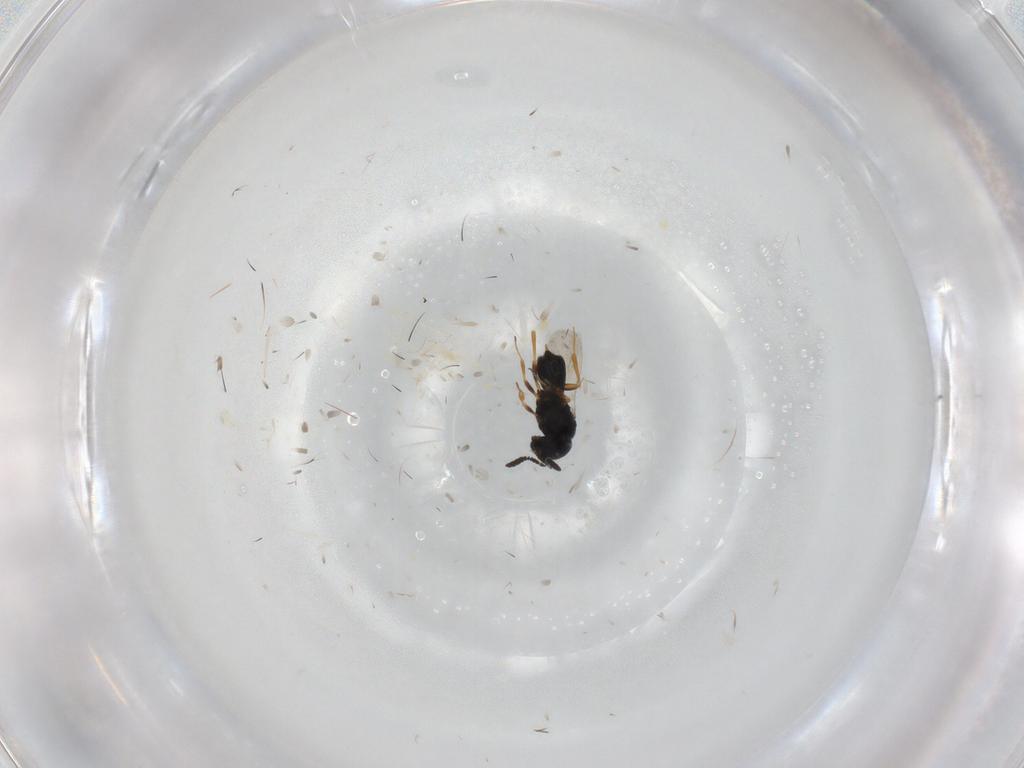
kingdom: Animalia
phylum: Arthropoda
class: Insecta
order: Hymenoptera
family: Scelionidae
